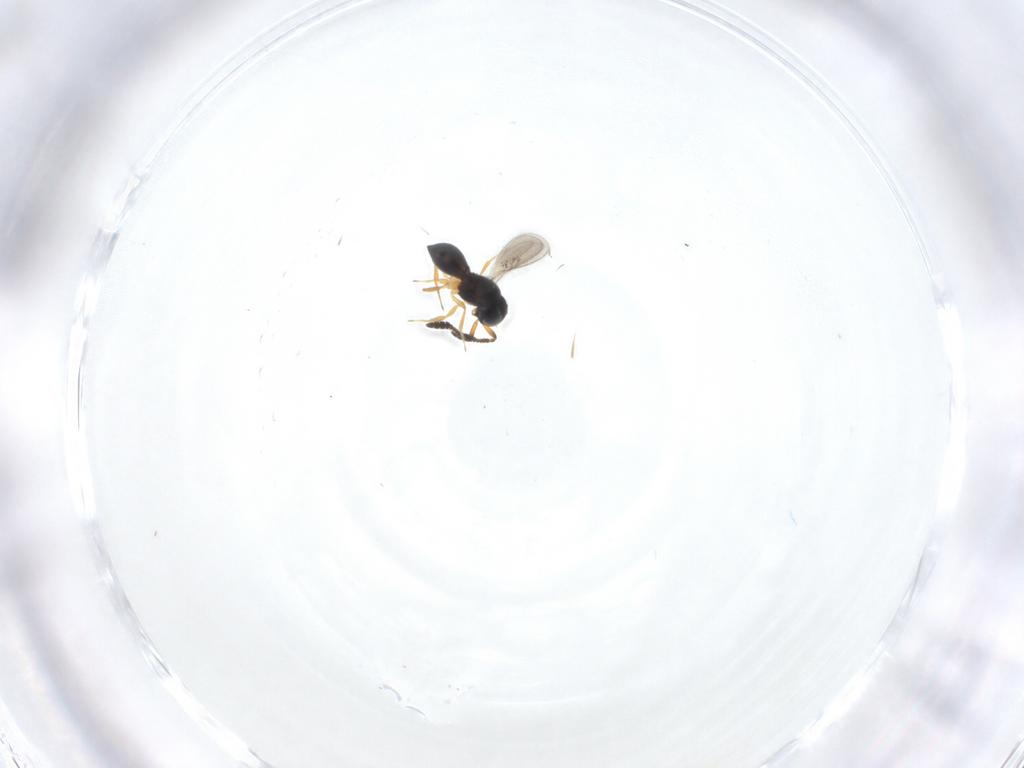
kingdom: Animalia
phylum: Arthropoda
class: Insecta
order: Hymenoptera
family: Scelionidae
